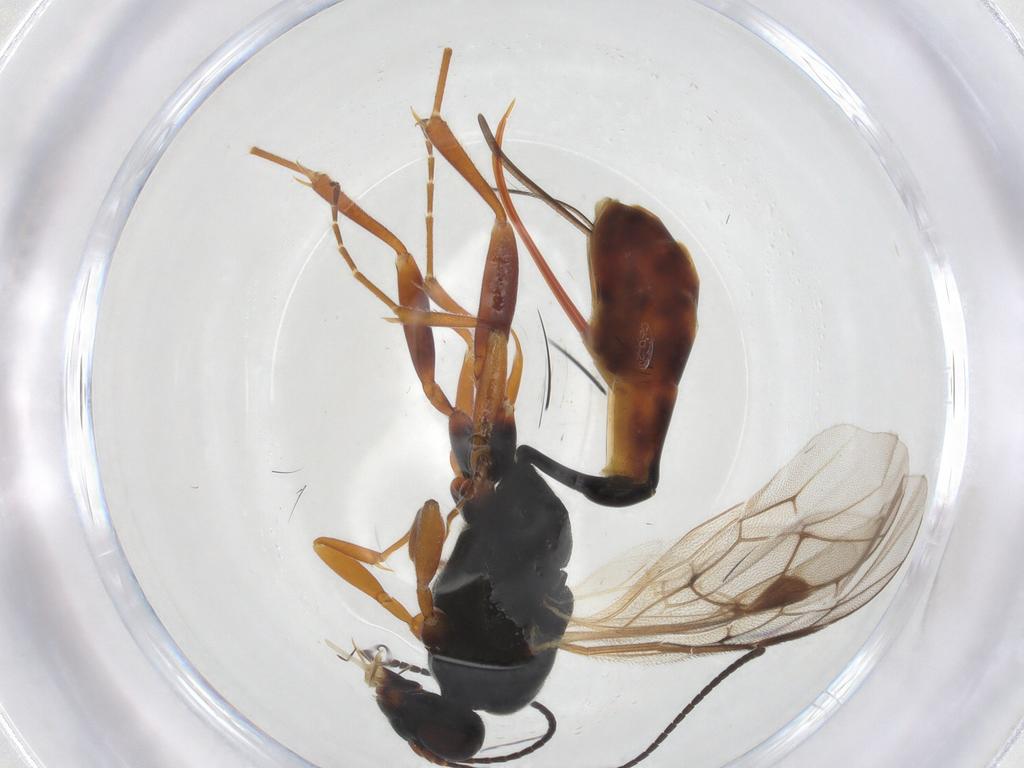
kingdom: Animalia
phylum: Arthropoda
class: Insecta
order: Hymenoptera
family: Ichneumonidae
